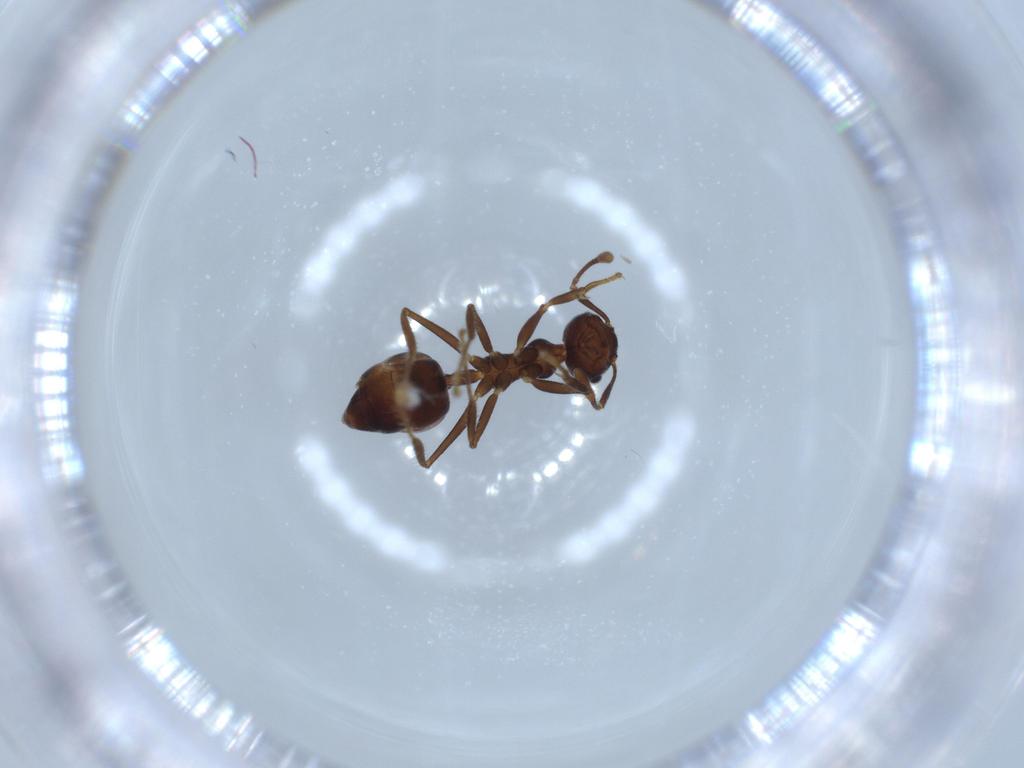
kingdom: Animalia
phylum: Arthropoda
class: Insecta
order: Hymenoptera
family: Formicidae
